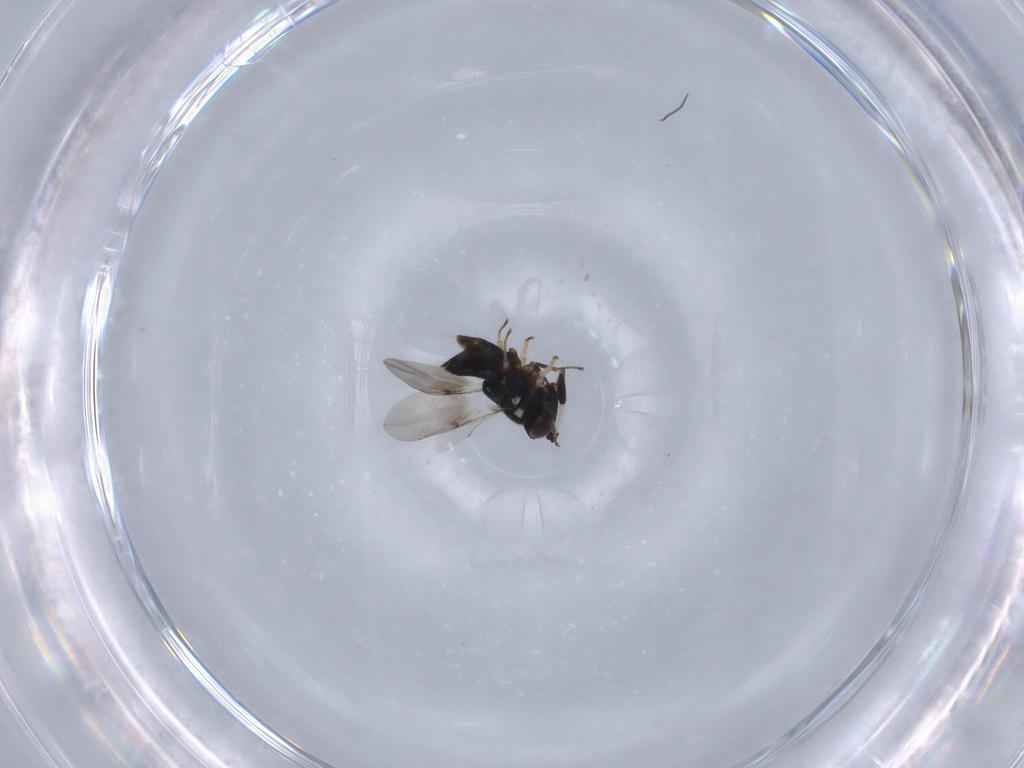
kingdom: Animalia
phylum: Arthropoda
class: Insecta
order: Hymenoptera
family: Encyrtidae
